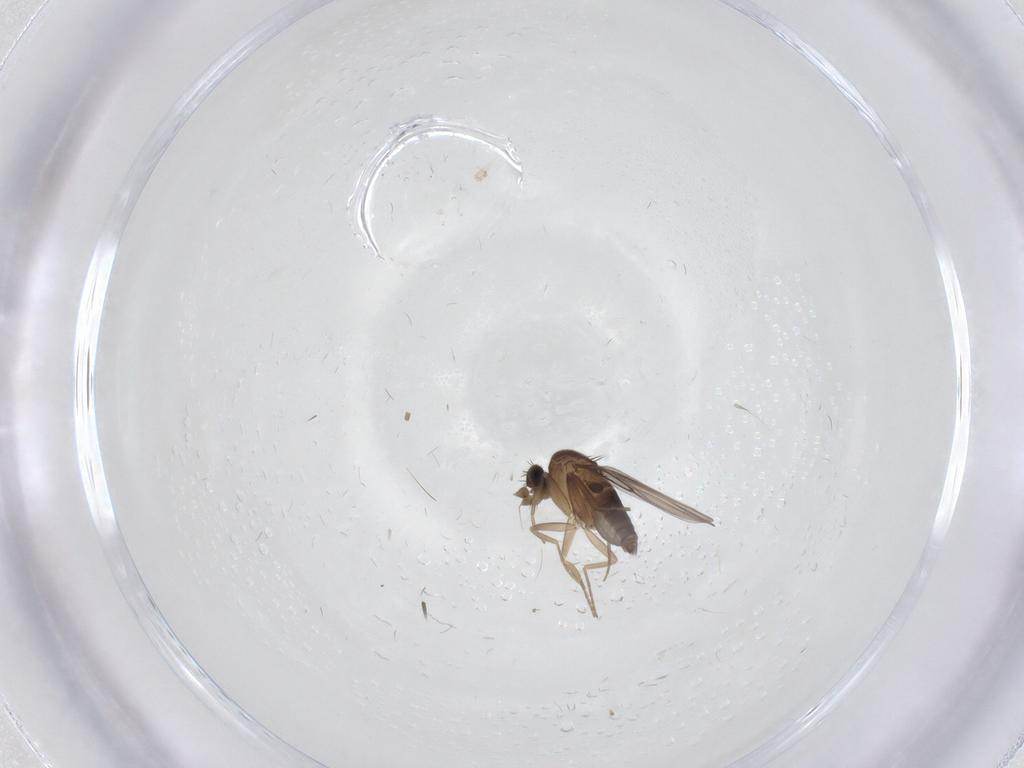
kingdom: Animalia
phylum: Arthropoda
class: Insecta
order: Diptera
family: Phoridae
